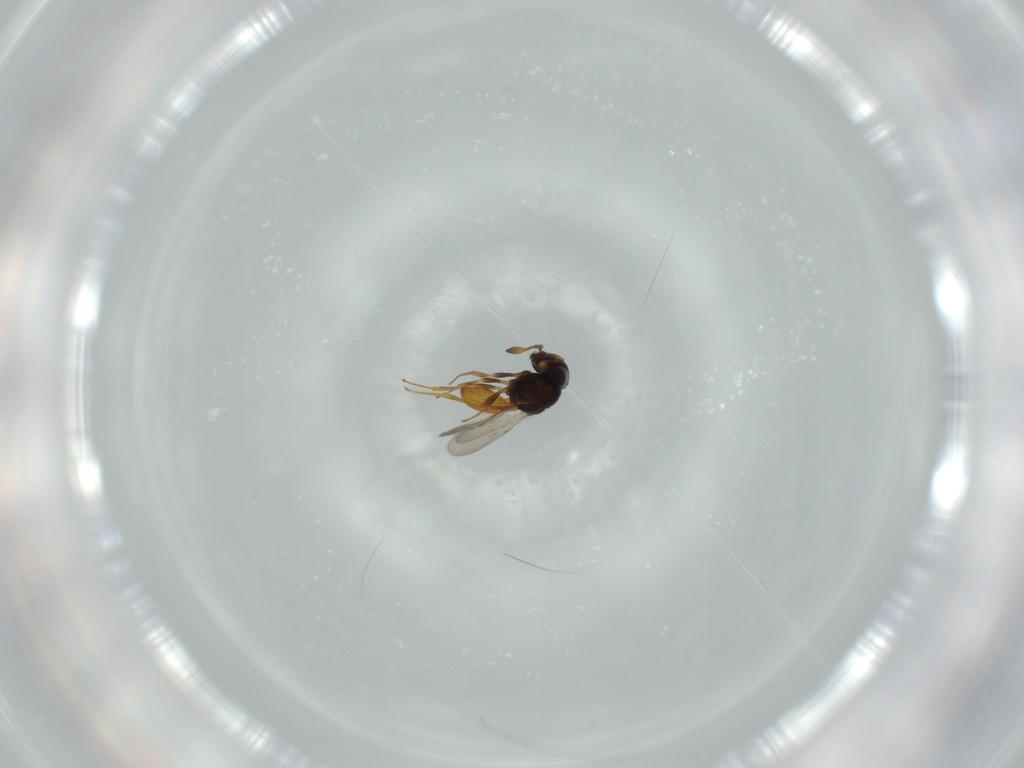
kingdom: Animalia
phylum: Arthropoda
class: Insecta
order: Hymenoptera
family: Scelionidae
